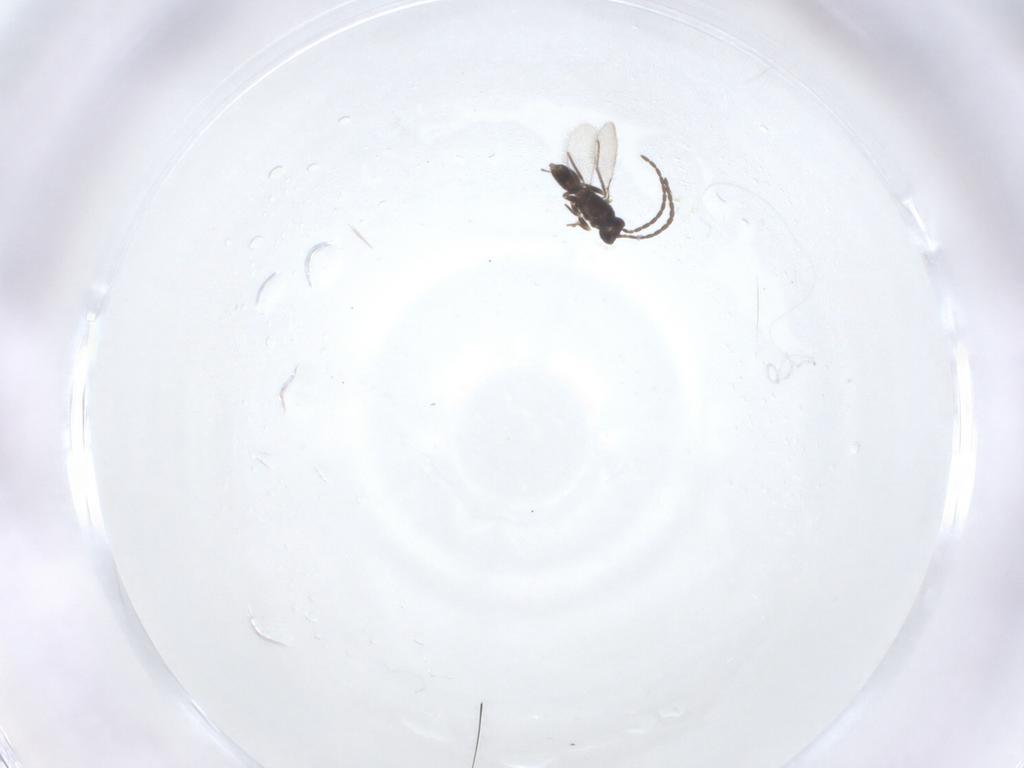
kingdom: Animalia
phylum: Arthropoda
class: Insecta
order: Hymenoptera
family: Mymaridae
